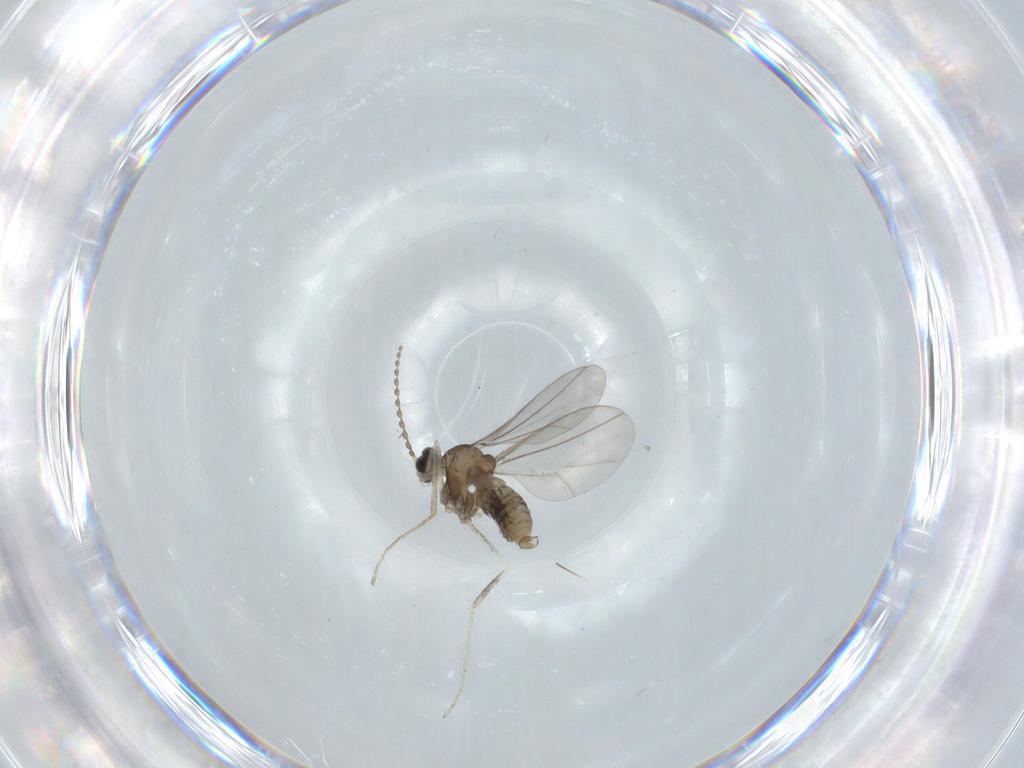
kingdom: Animalia
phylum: Arthropoda
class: Insecta
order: Diptera
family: Cecidomyiidae
